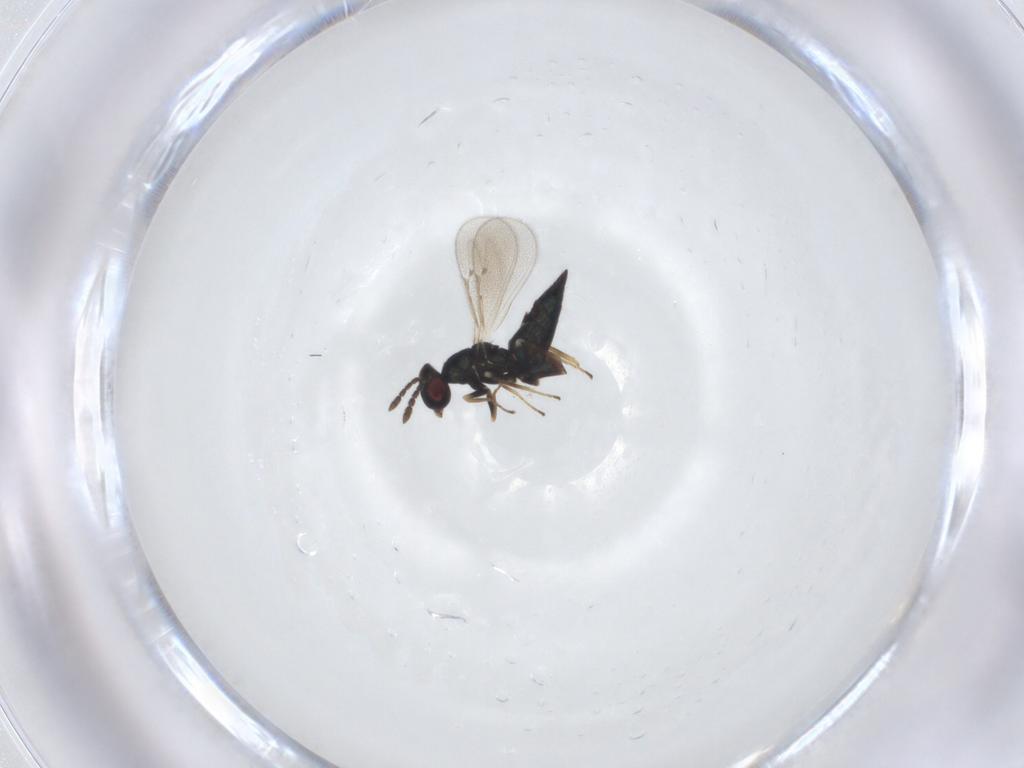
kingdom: Animalia
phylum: Arthropoda
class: Insecta
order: Hymenoptera
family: Eulophidae
